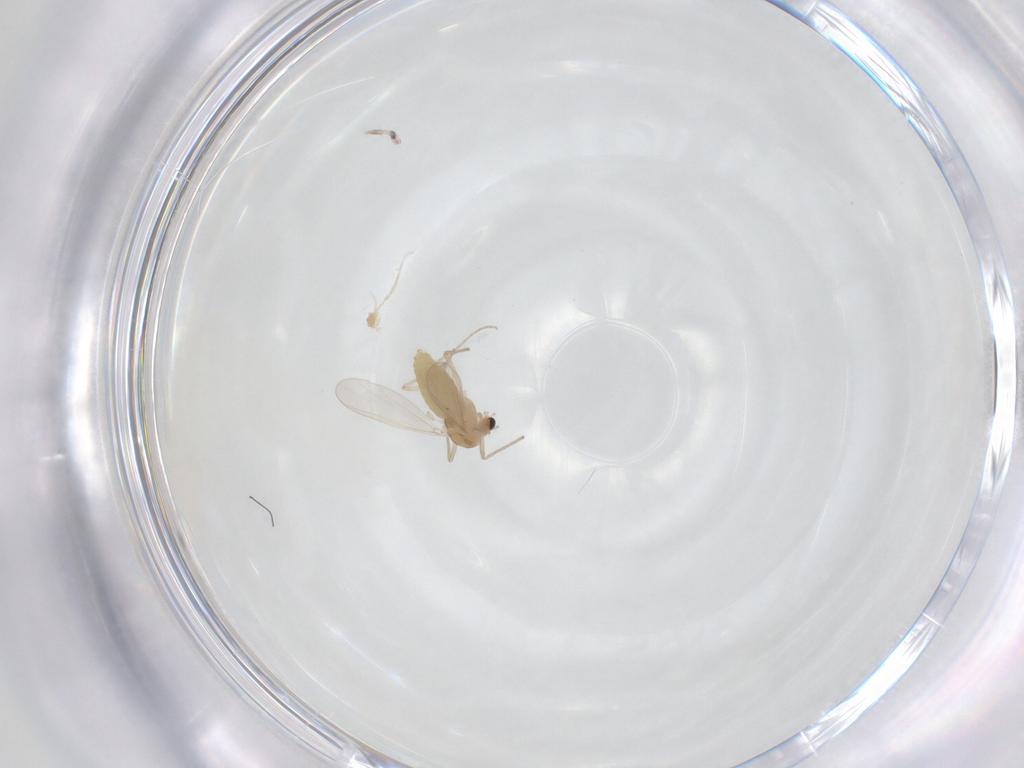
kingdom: Animalia
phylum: Arthropoda
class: Insecta
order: Diptera
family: Chironomidae
